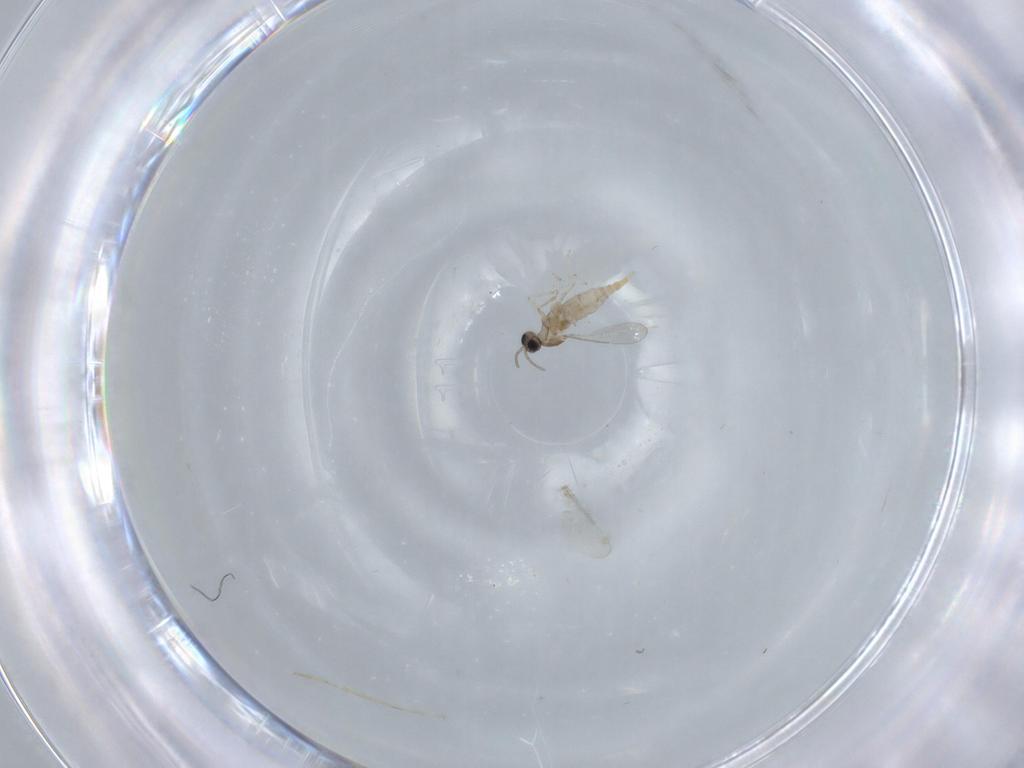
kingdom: Animalia
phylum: Arthropoda
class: Insecta
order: Diptera
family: Cecidomyiidae
